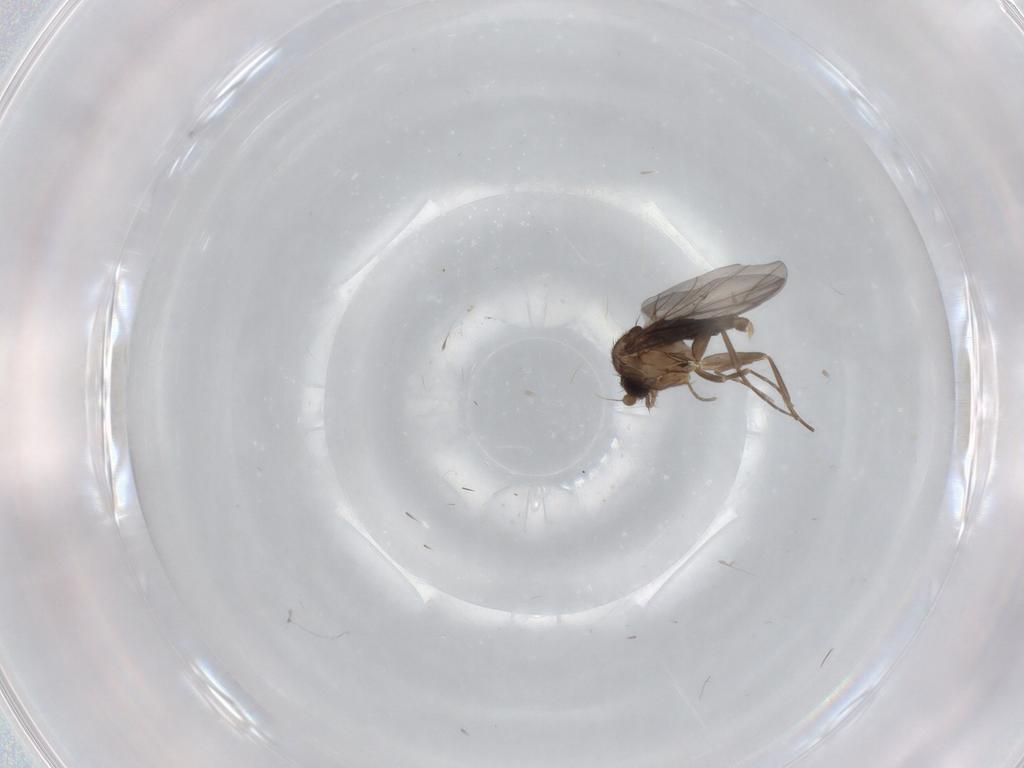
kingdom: Animalia
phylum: Arthropoda
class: Insecta
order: Diptera
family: Phoridae
